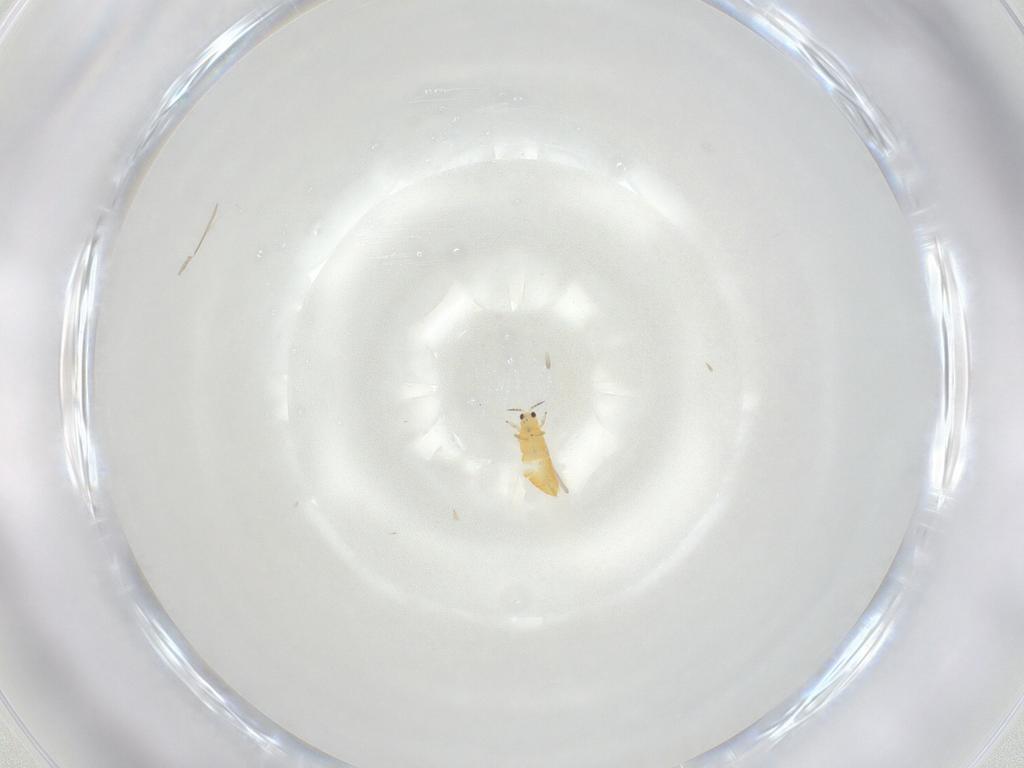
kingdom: Animalia
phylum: Arthropoda
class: Insecta
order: Thysanoptera
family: Thripidae
